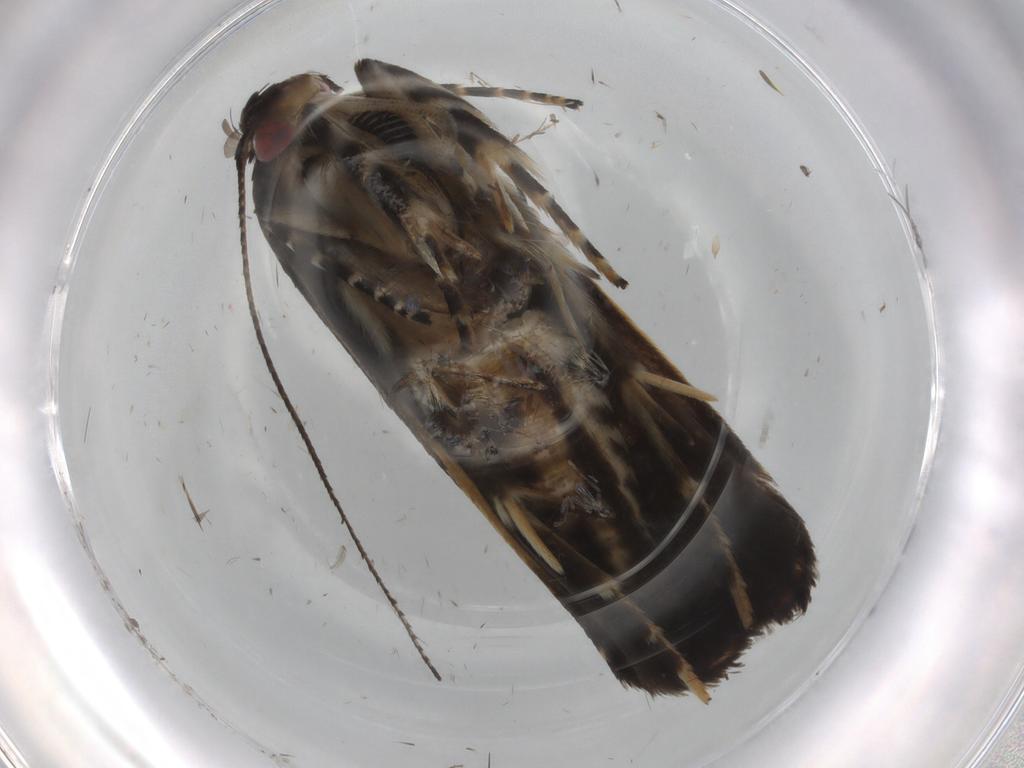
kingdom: Animalia
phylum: Arthropoda
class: Insecta
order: Lepidoptera
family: Gelechiidae
